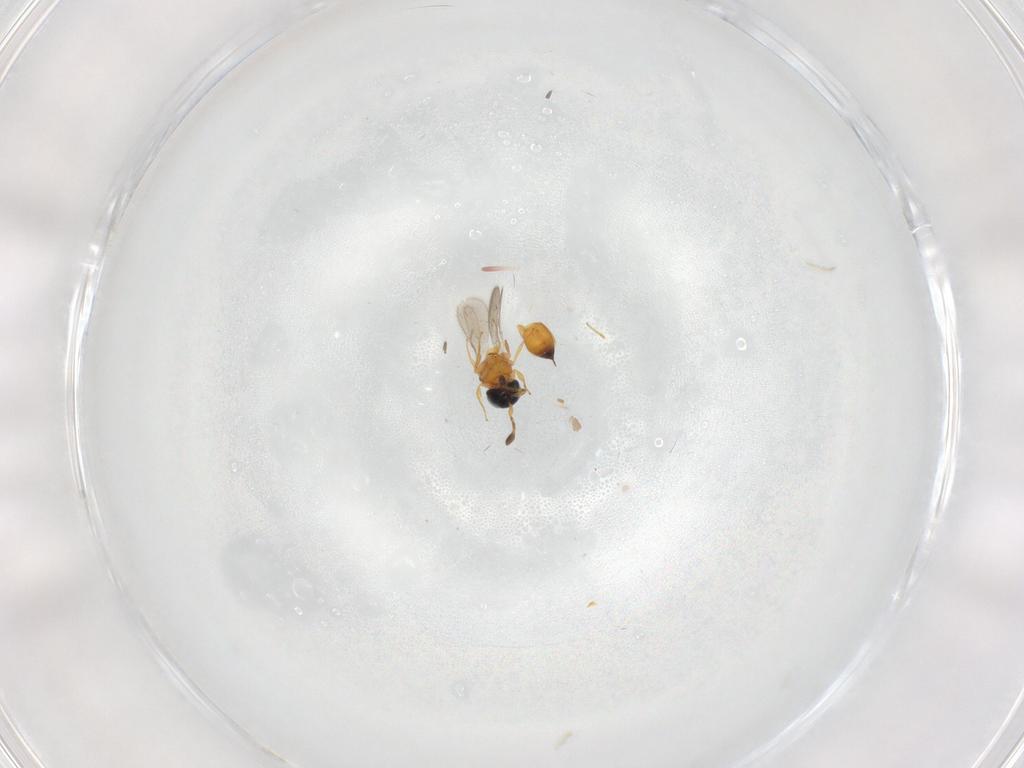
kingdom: Animalia
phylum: Arthropoda
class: Insecta
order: Hymenoptera
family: Scelionidae
